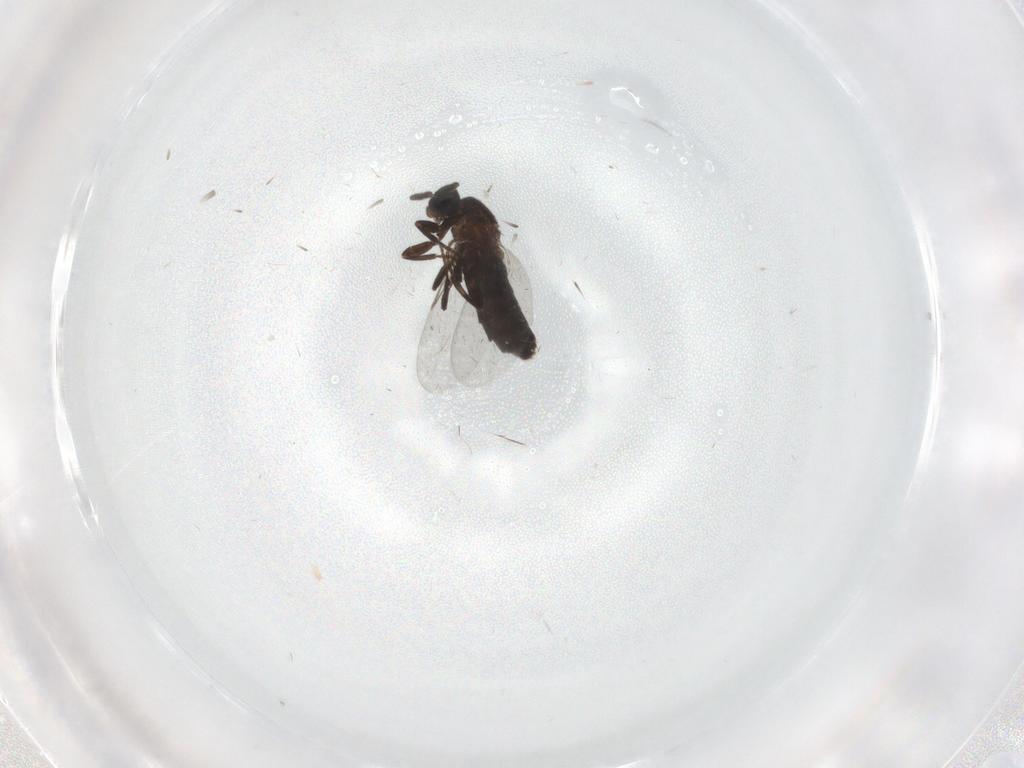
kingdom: Animalia
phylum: Arthropoda
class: Insecta
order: Diptera
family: Scatopsidae
